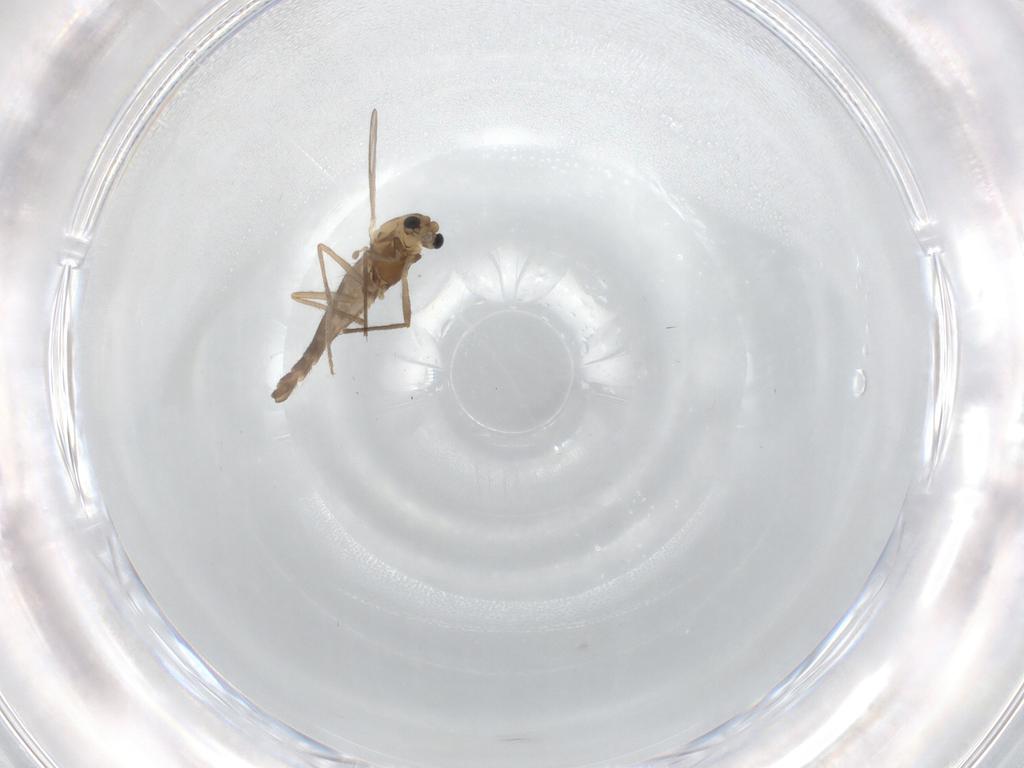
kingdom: Animalia
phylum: Arthropoda
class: Insecta
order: Diptera
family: Chironomidae
